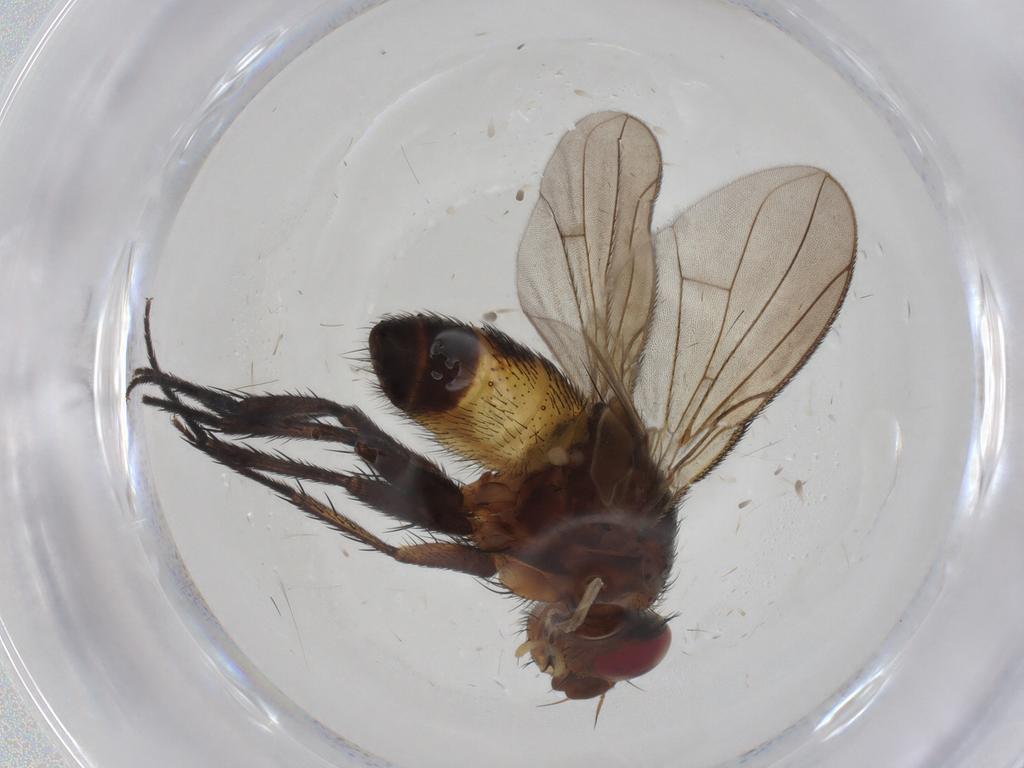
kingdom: Animalia
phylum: Arthropoda
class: Insecta
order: Diptera
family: Tachinidae
